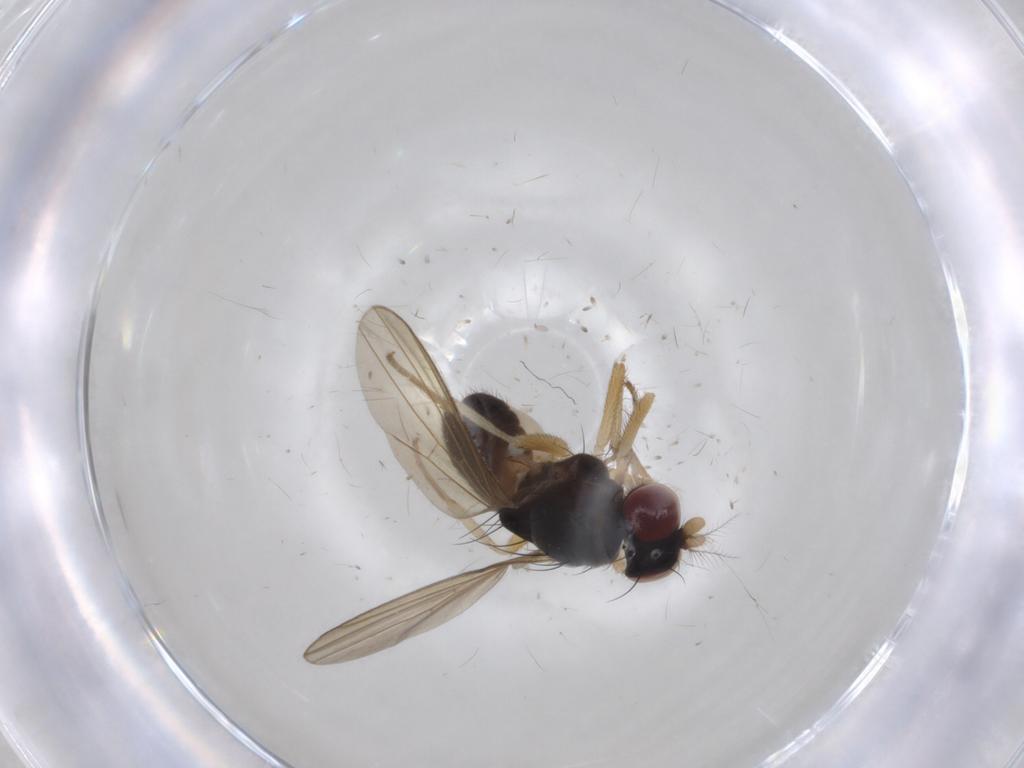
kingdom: Animalia
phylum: Arthropoda
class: Insecta
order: Diptera
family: Lauxaniidae
